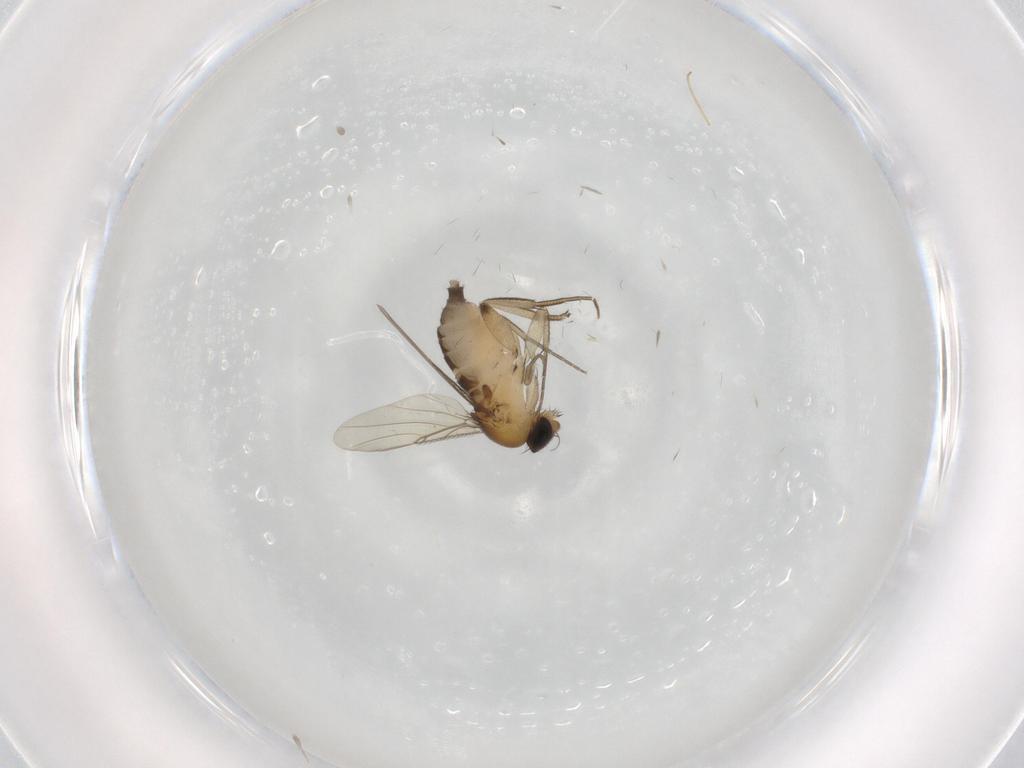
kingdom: Animalia
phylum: Arthropoda
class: Insecta
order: Diptera
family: Phoridae
